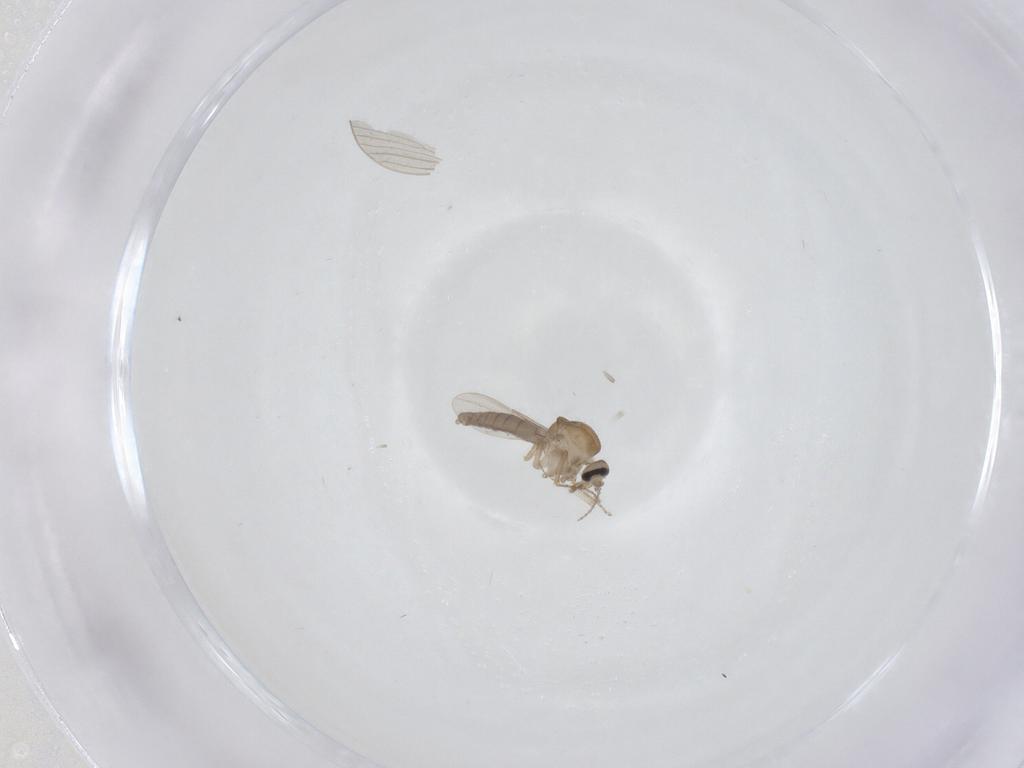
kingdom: Animalia
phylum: Arthropoda
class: Insecta
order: Diptera
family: Ceratopogonidae
